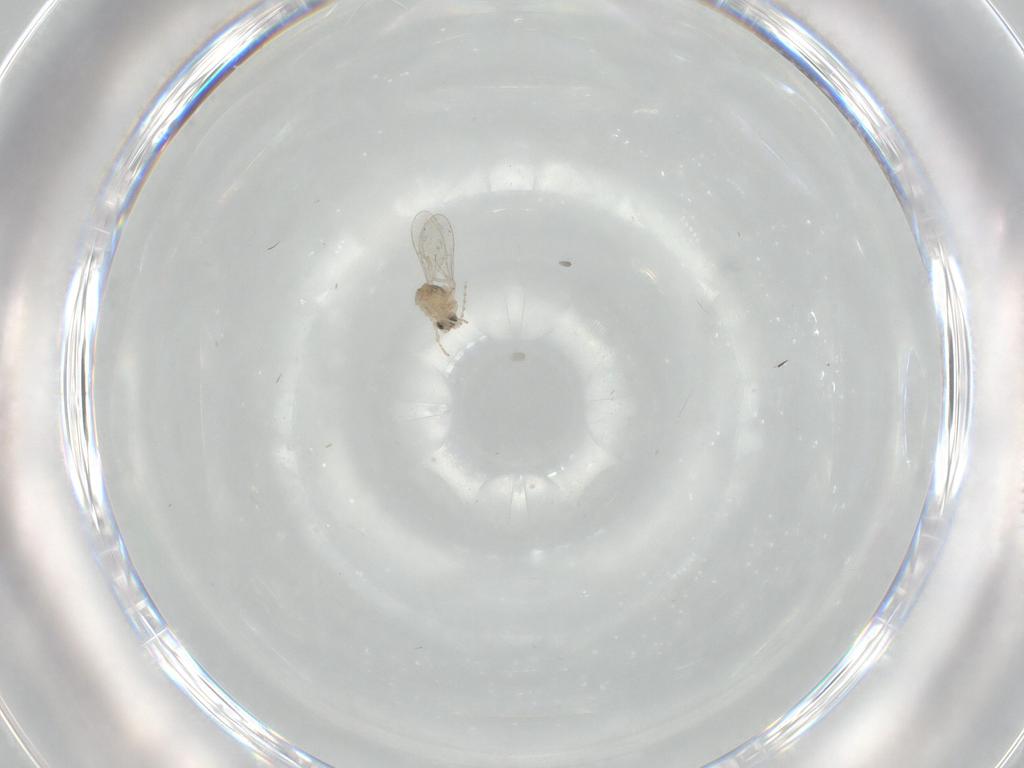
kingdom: Animalia
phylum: Arthropoda
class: Insecta
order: Diptera
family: Cecidomyiidae
